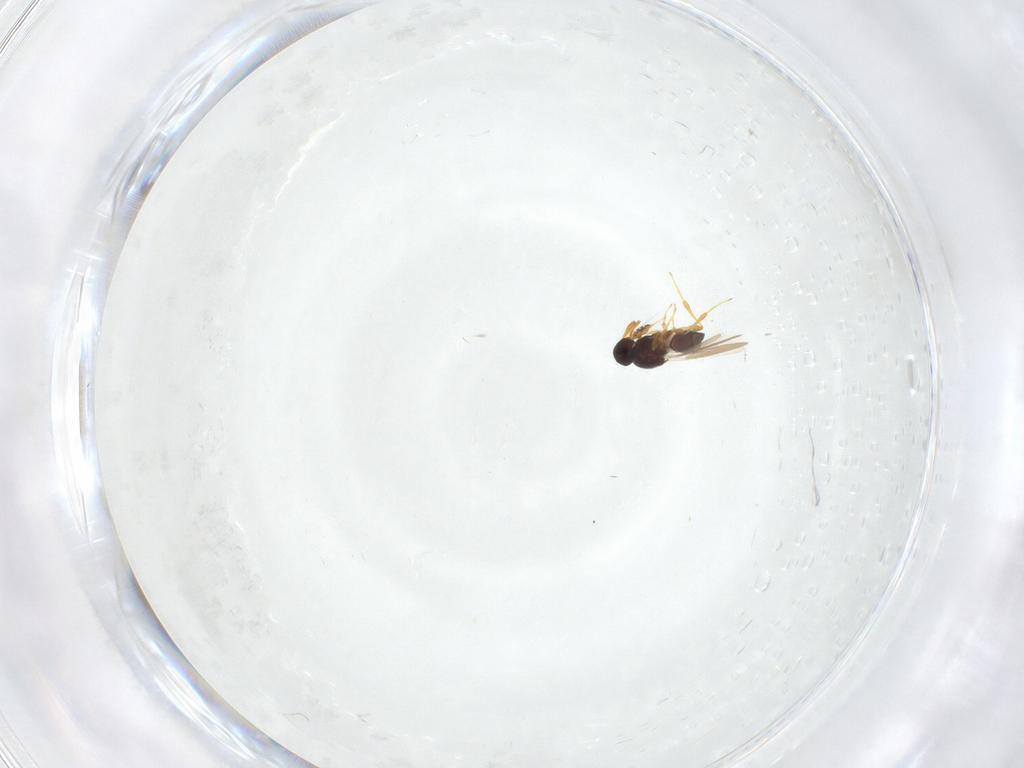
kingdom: Animalia
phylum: Arthropoda
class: Insecta
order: Diptera
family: Cecidomyiidae
